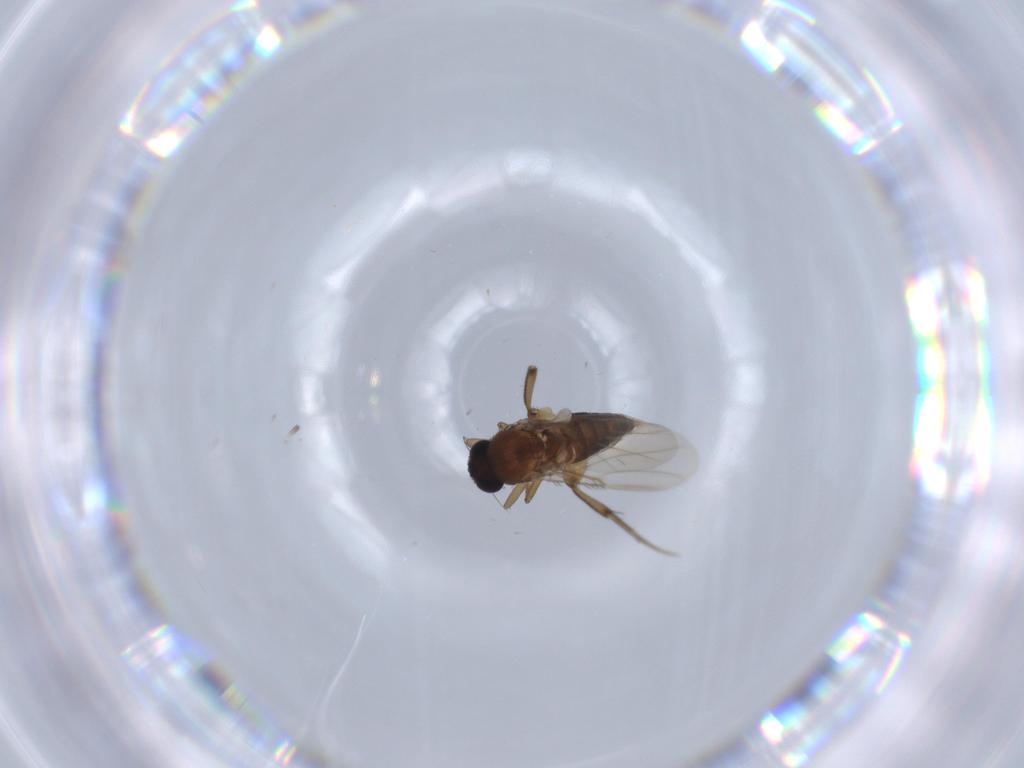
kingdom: Animalia
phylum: Arthropoda
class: Insecta
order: Diptera
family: Phoridae
